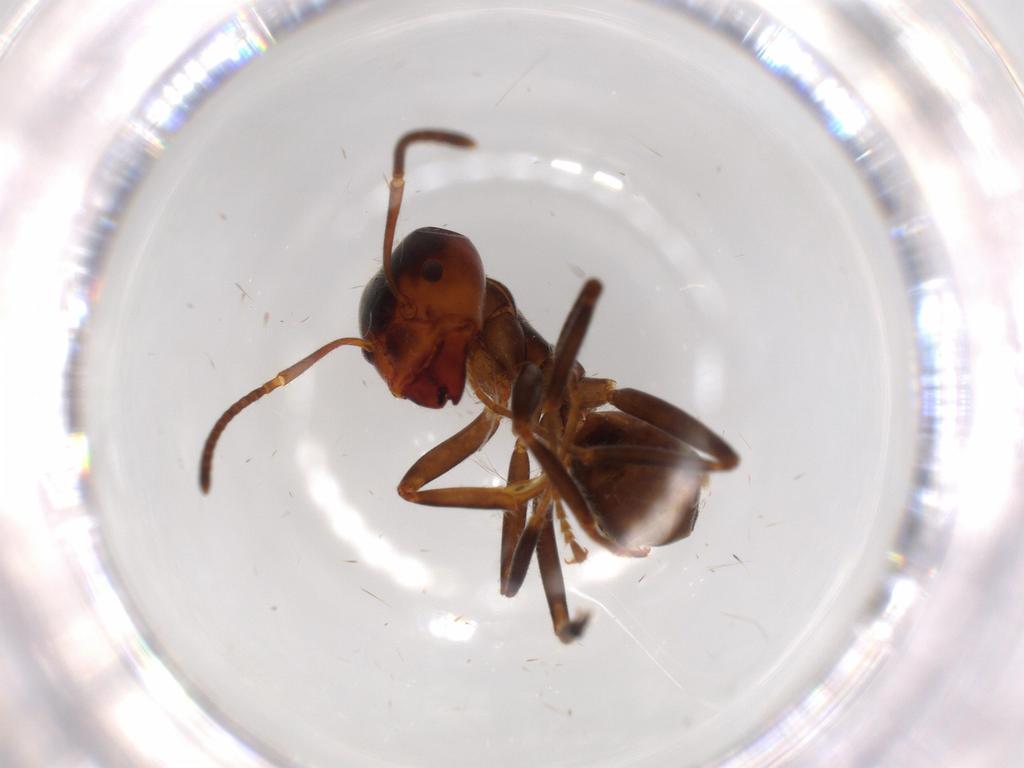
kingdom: Animalia
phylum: Arthropoda
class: Insecta
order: Hymenoptera
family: Formicidae
